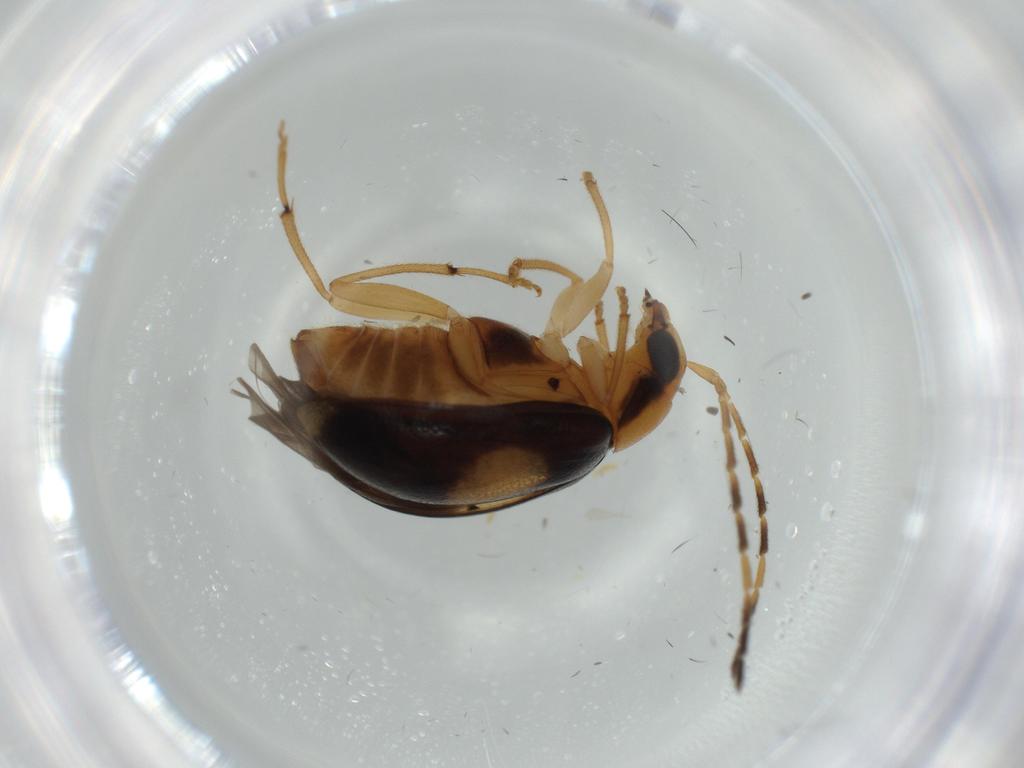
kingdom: Animalia
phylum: Arthropoda
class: Insecta
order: Coleoptera
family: Chrysomelidae
